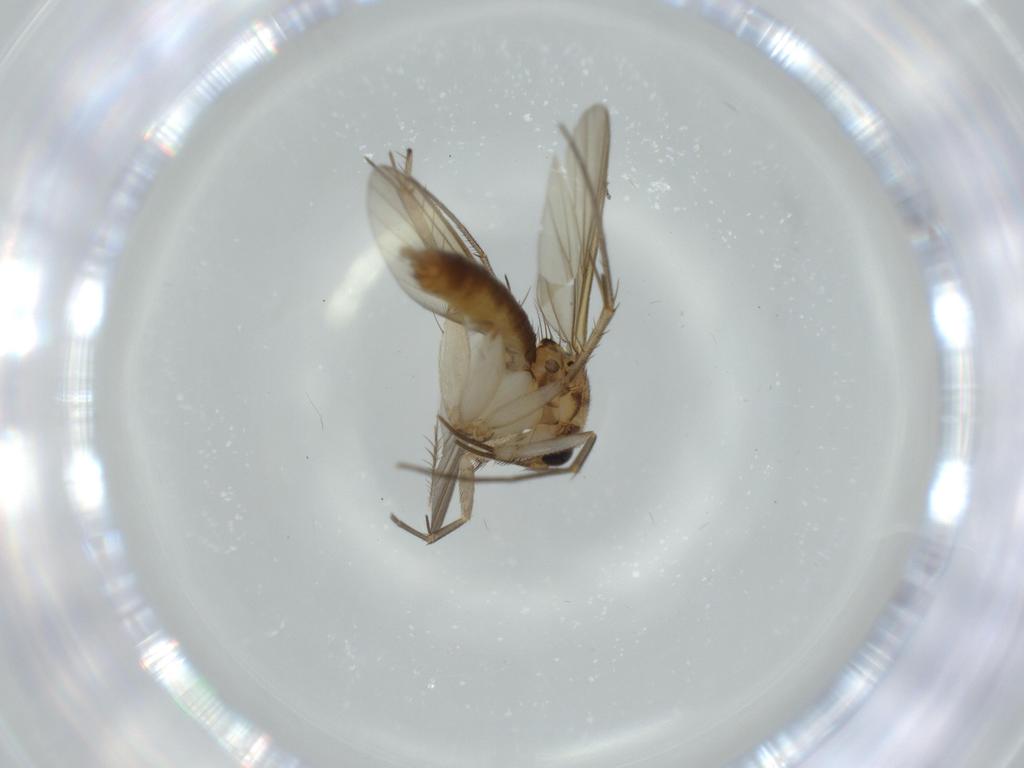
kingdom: Animalia
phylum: Arthropoda
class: Insecta
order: Diptera
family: Mycetophilidae
